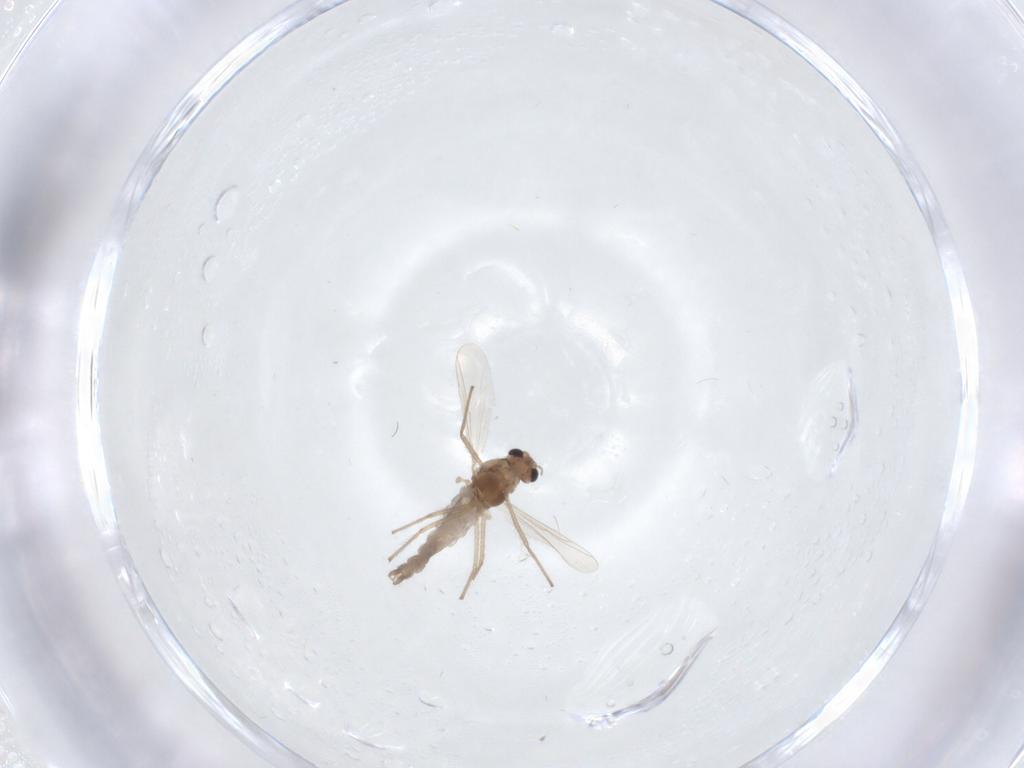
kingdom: Animalia
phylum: Arthropoda
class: Insecta
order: Diptera
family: Chironomidae
